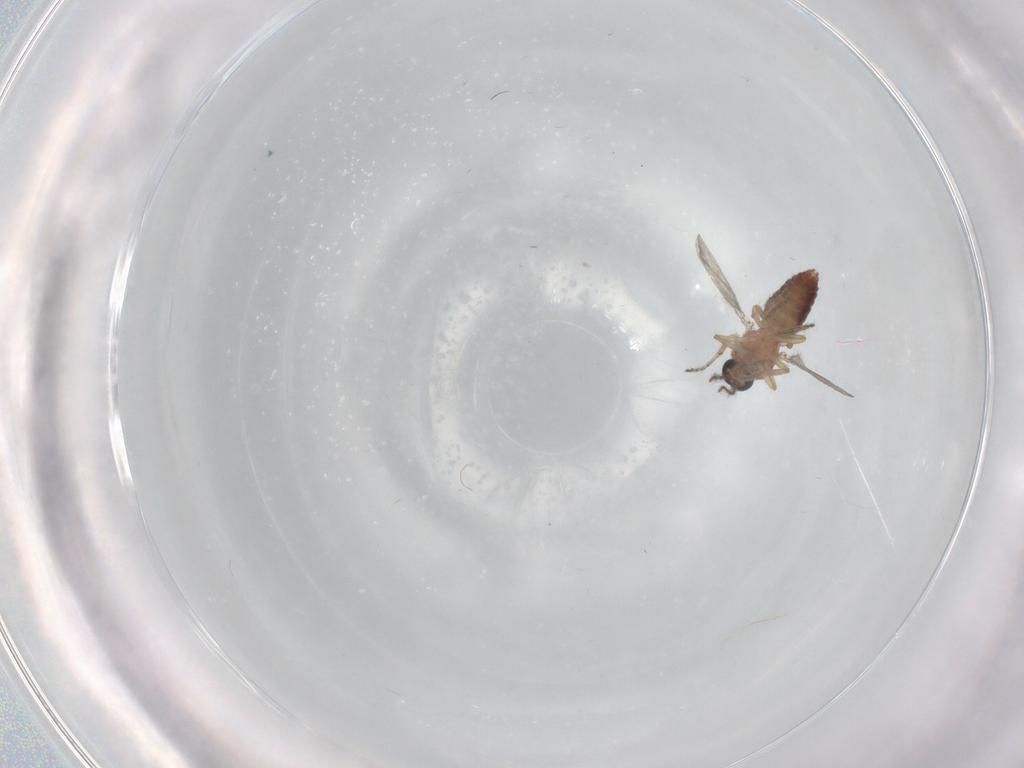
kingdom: Animalia
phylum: Arthropoda
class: Insecta
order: Diptera
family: Ceratopogonidae
